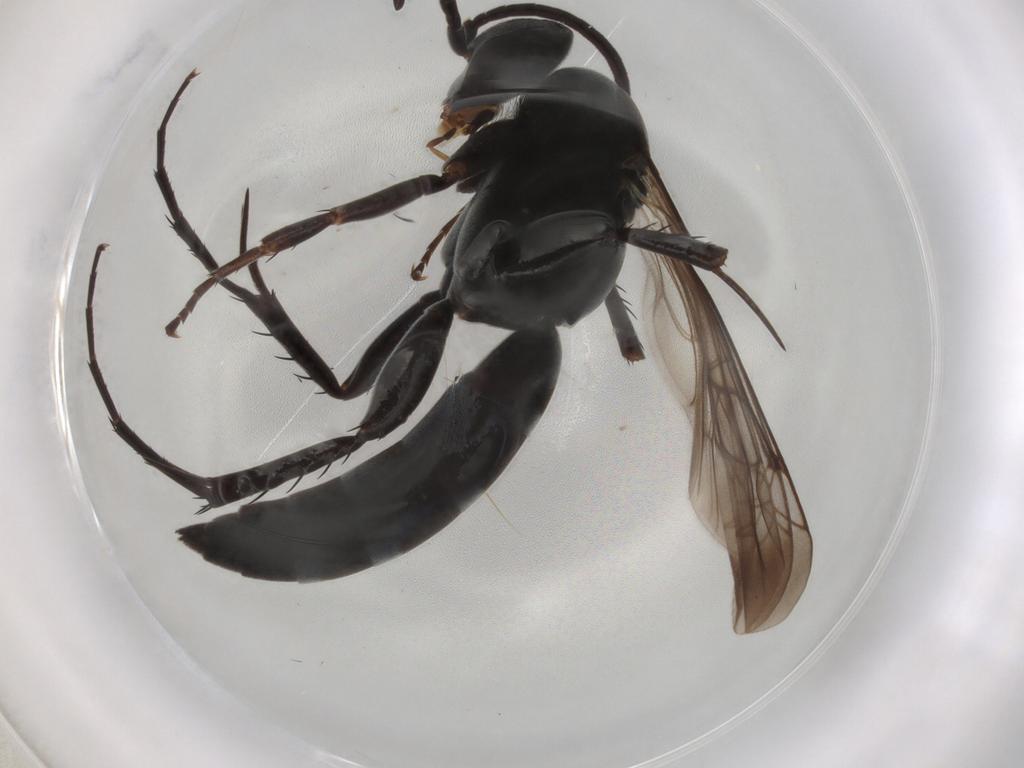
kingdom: Animalia
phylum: Arthropoda
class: Insecta
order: Hymenoptera
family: Pompilidae
